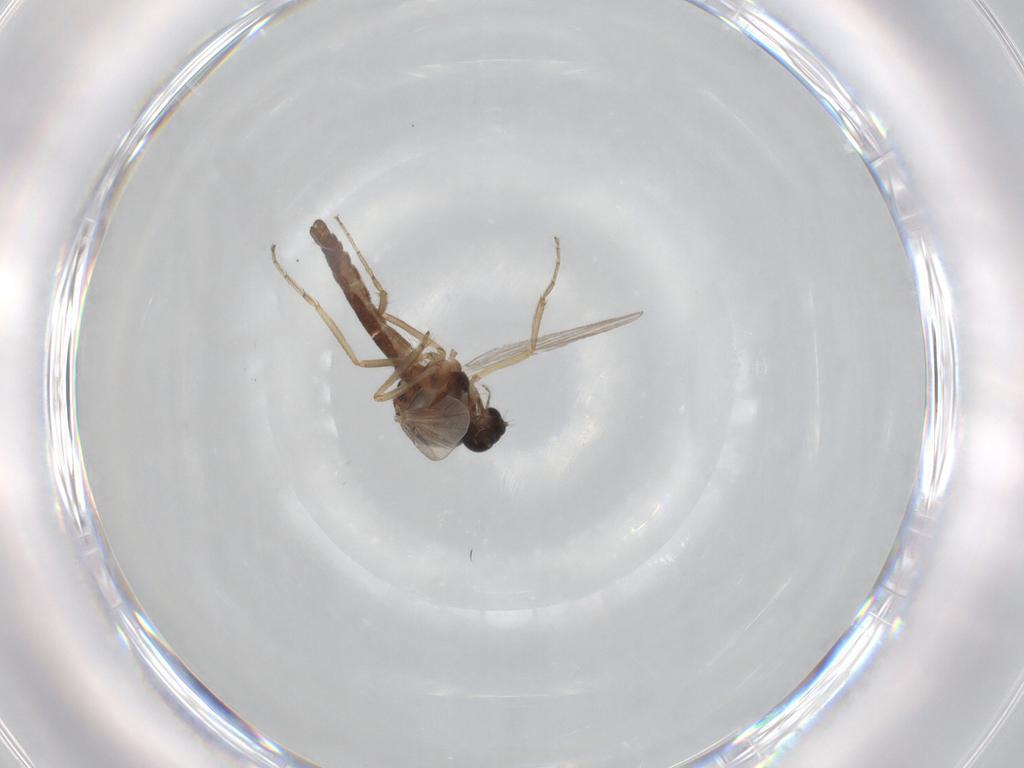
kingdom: Animalia
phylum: Arthropoda
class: Insecta
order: Diptera
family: Ceratopogonidae
